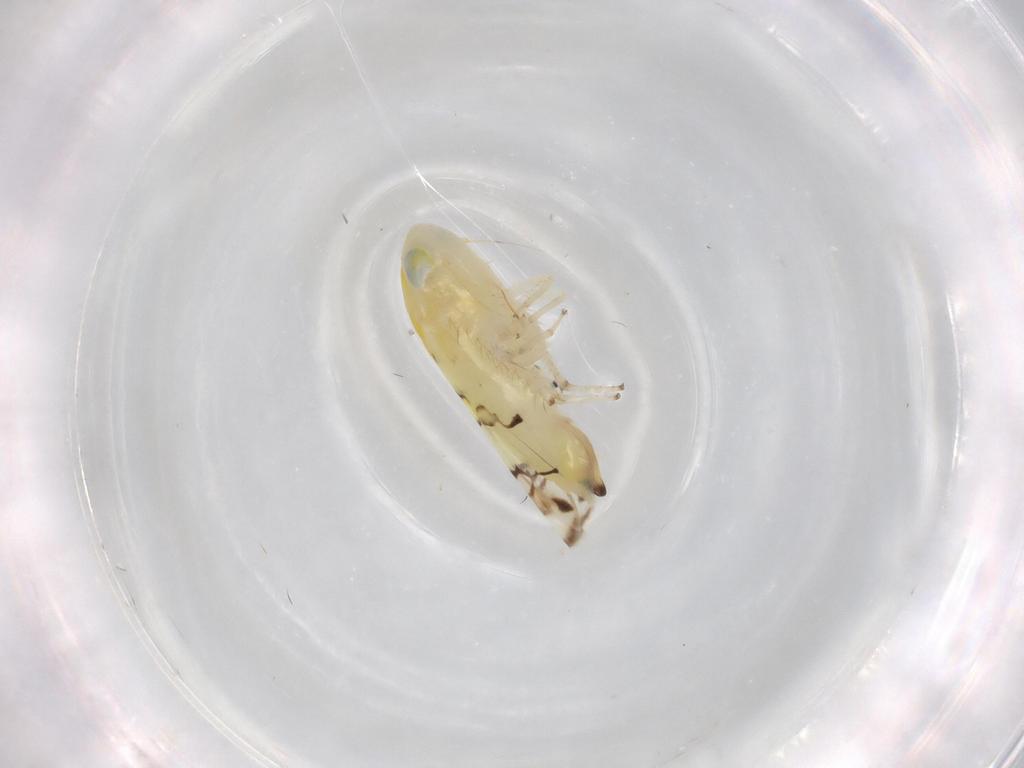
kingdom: Animalia
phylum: Arthropoda
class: Insecta
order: Hemiptera
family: Cicadellidae
